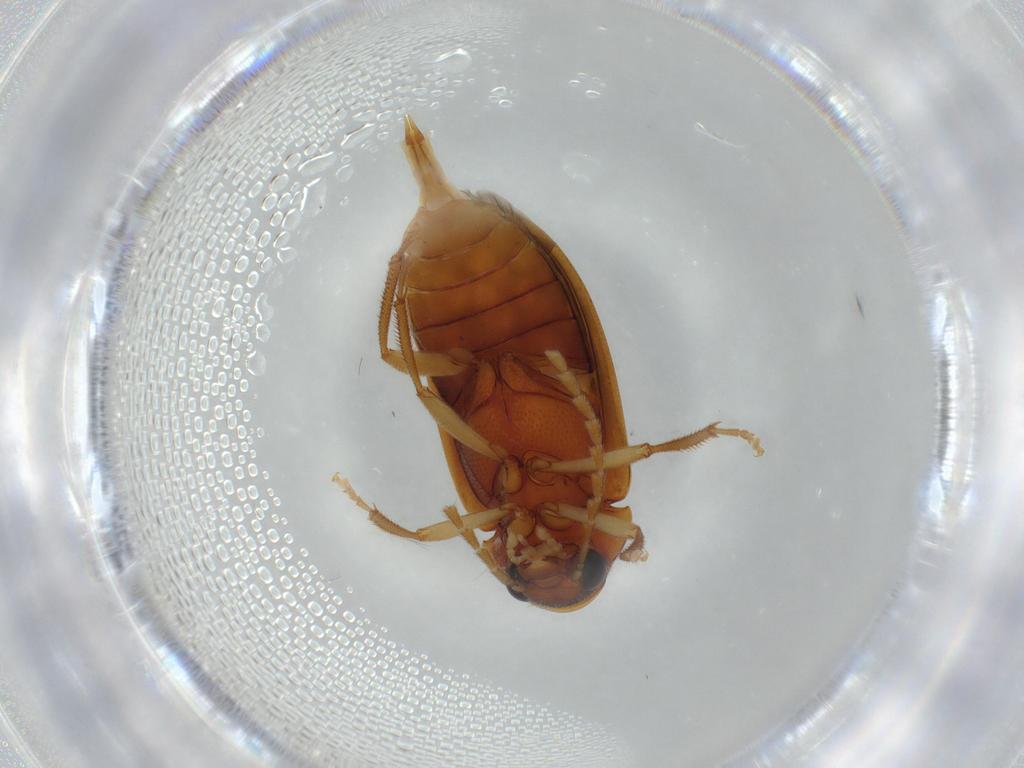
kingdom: Animalia
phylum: Arthropoda
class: Insecta
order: Coleoptera
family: Ptilodactylidae
